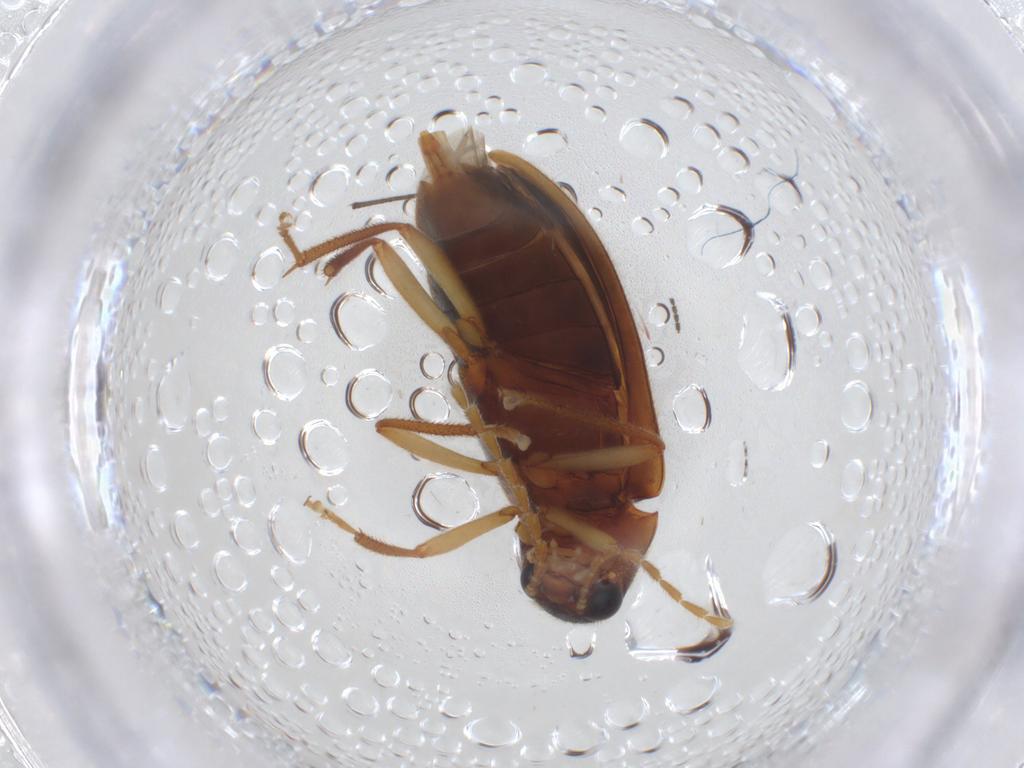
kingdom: Animalia
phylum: Arthropoda
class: Insecta
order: Coleoptera
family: Ptilodactylidae
